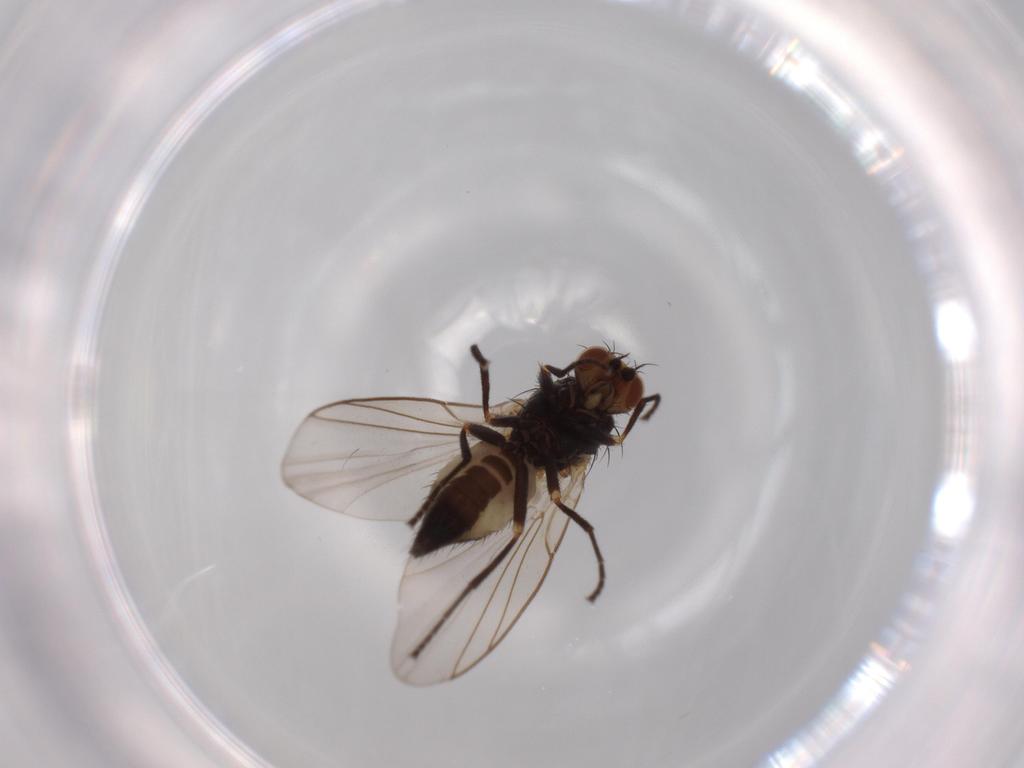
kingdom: Animalia
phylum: Arthropoda
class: Insecta
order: Diptera
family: Agromyzidae
